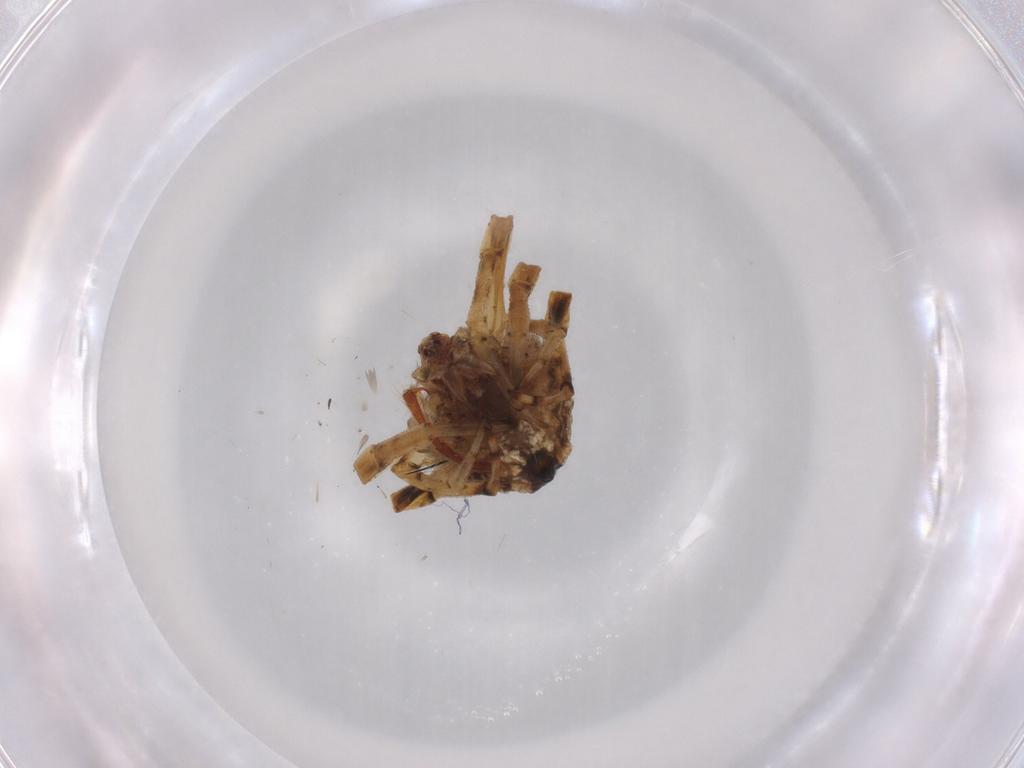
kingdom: Animalia
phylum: Arthropoda
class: Arachnida
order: Araneae
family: Araneidae
